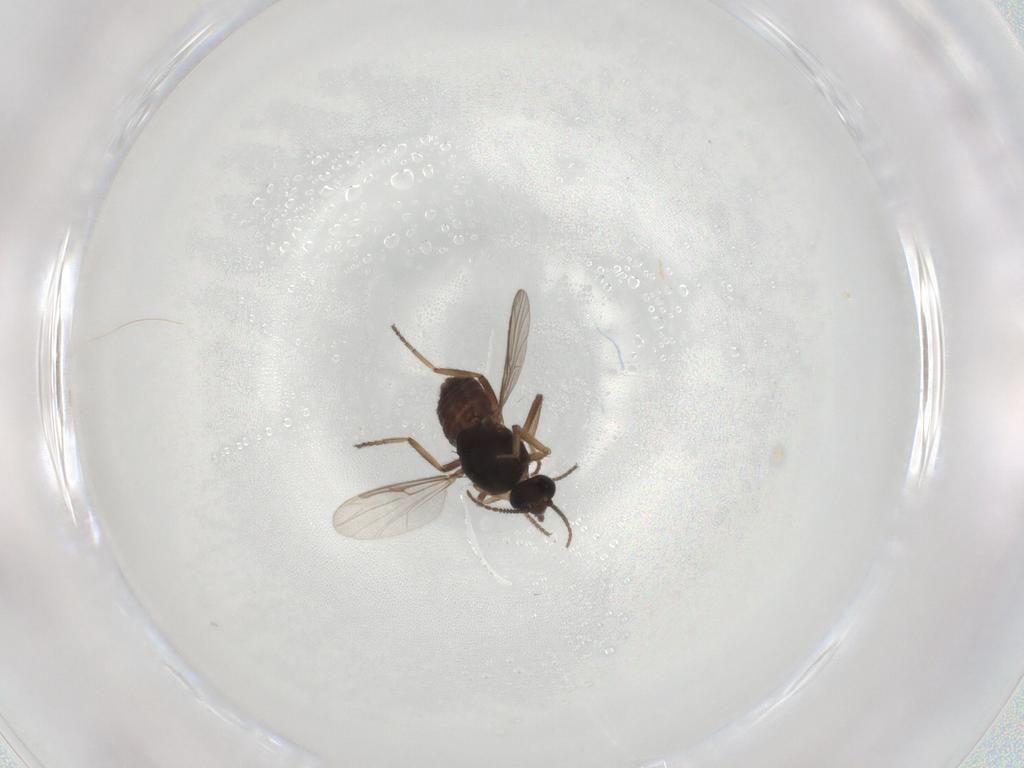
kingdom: Animalia
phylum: Arthropoda
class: Insecta
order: Diptera
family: Ceratopogonidae
